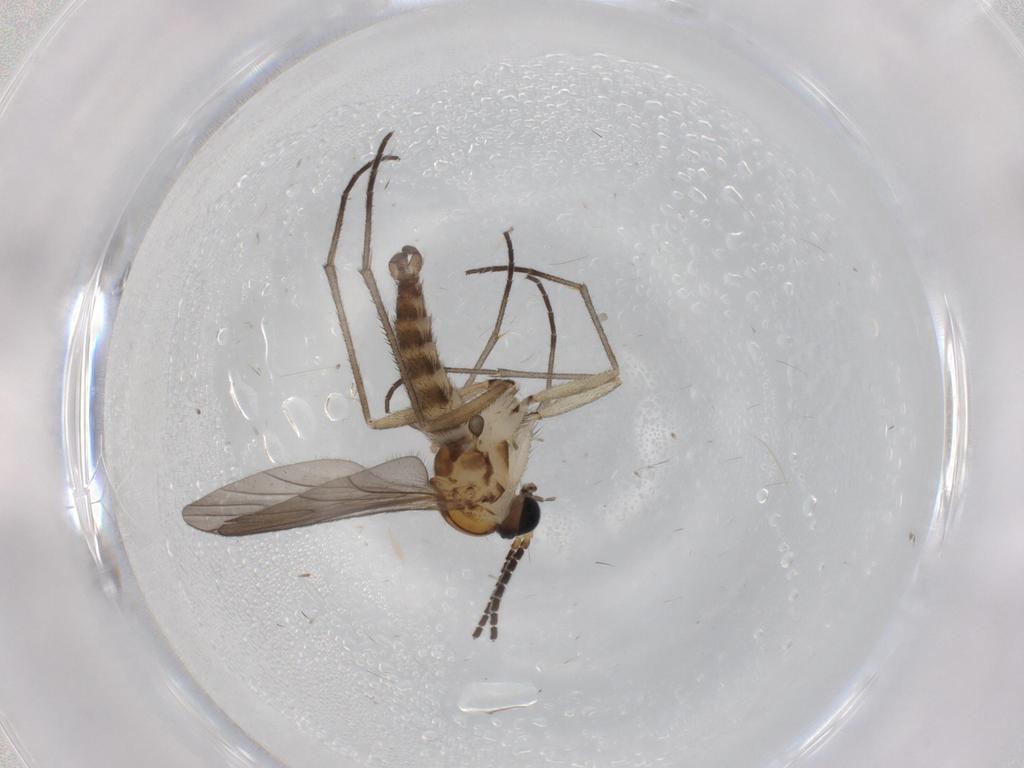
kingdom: Animalia
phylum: Arthropoda
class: Insecta
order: Diptera
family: Sciaridae
